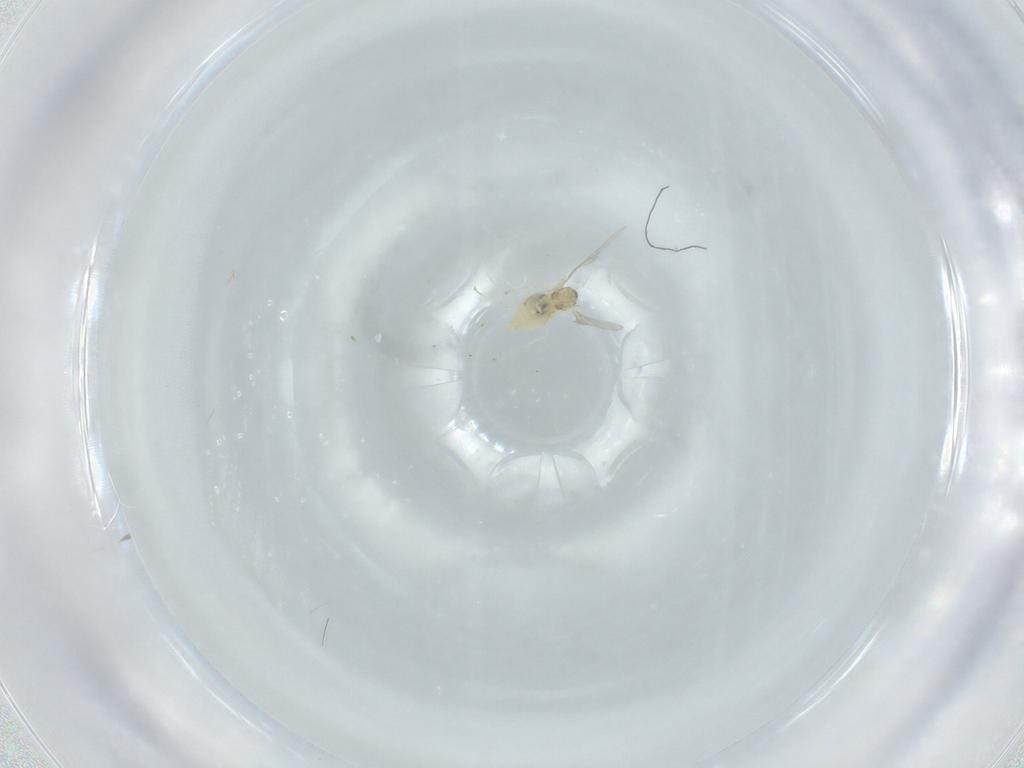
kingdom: Animalia
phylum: Arthropoda
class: Insecta
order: Diptera
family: Cecidomyiidae
